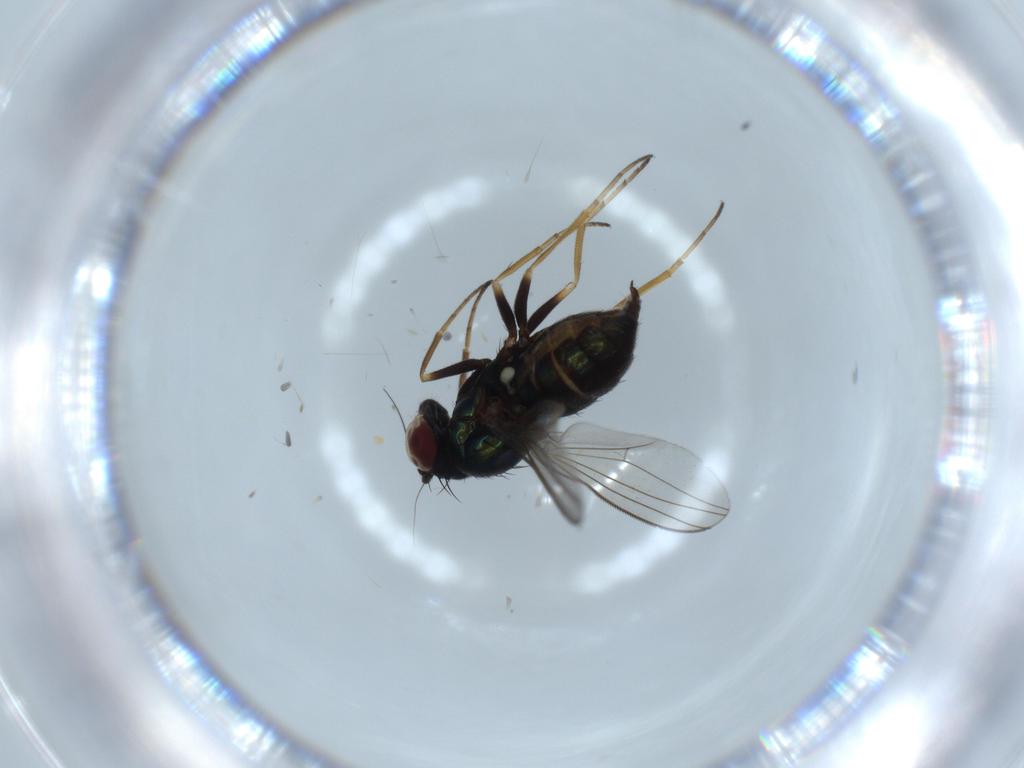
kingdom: Animalia
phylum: Arthropoda
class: Insecta
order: Diptera
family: Dolichopodidae
